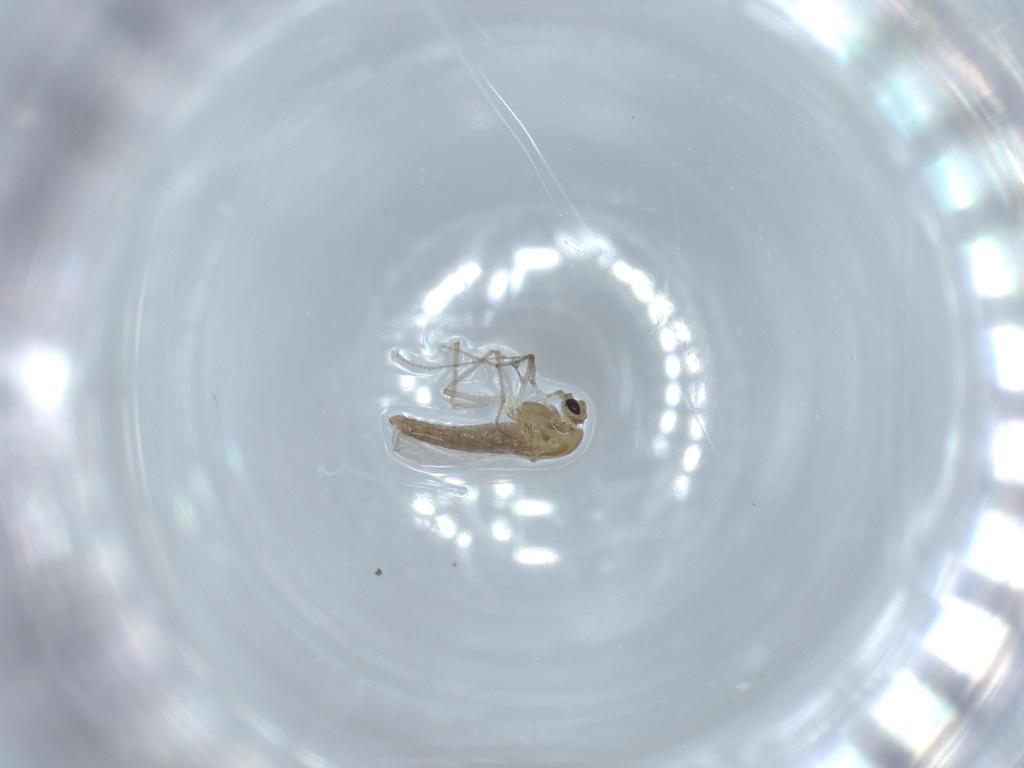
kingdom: Animalia
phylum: Arthropoda
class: Insecta
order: Diptera
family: Chironomidae
